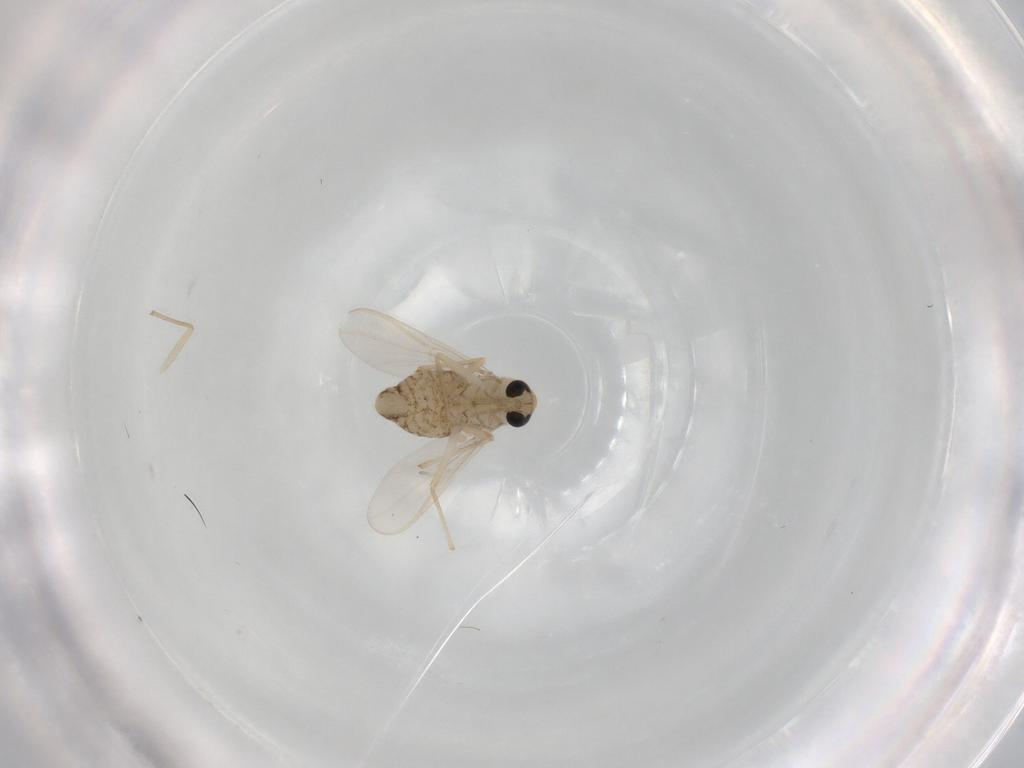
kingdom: Animalia
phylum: Arthropoda
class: Insecta
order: Diptera
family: Chironomidae
